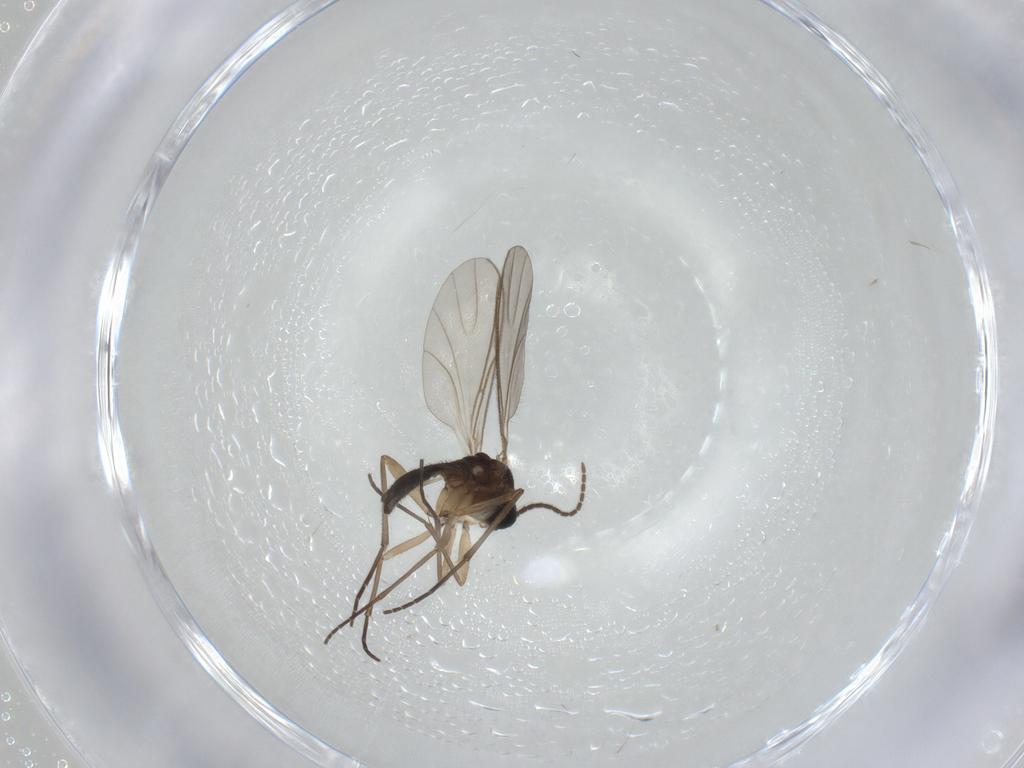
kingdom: Animalia
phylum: Arthropoda
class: Insecta
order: Diptera
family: Sciaridae
